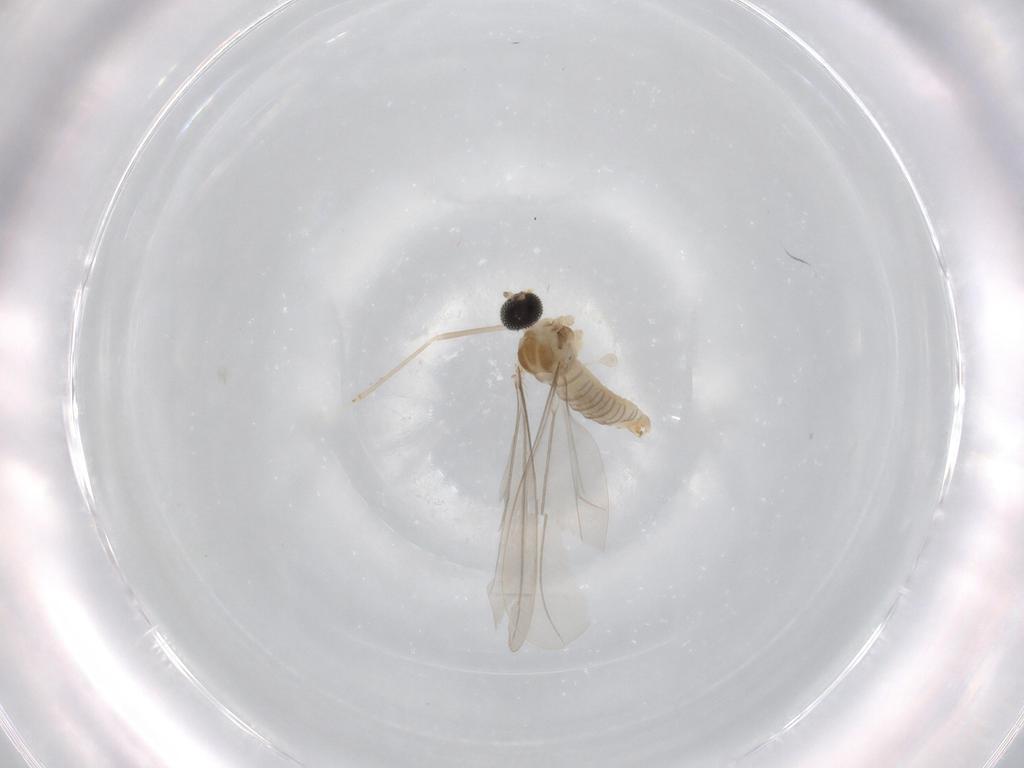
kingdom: Animalia
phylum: Arthropoda
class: Insecta
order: Diptera
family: Cecidomyiidae
